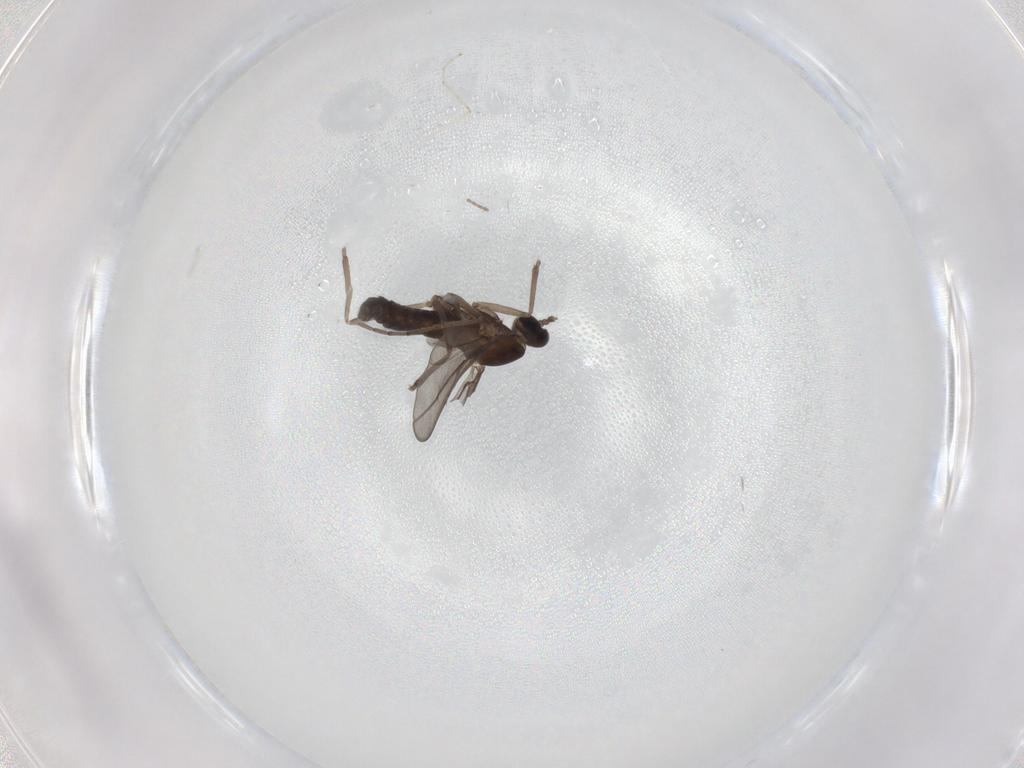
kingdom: Animalia
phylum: Arthropoda
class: Insecta
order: Diptera
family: Cecidomyiidae
